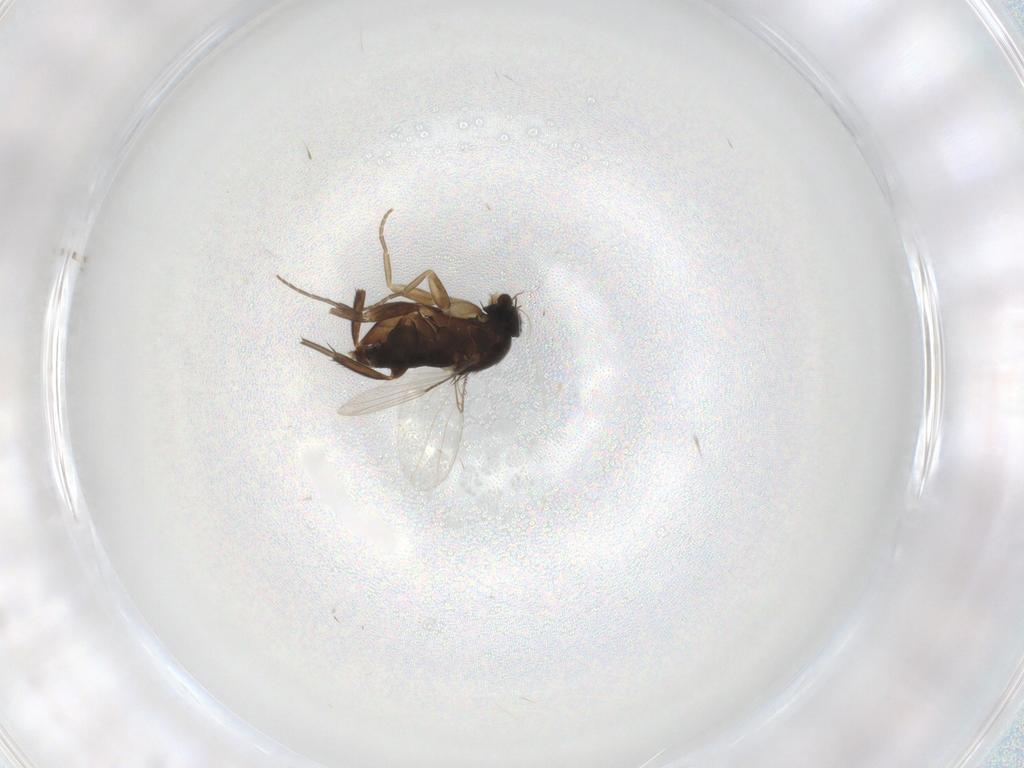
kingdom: Animalia
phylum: Arthropoda
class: Insecta
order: Diptera
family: Phoridae
